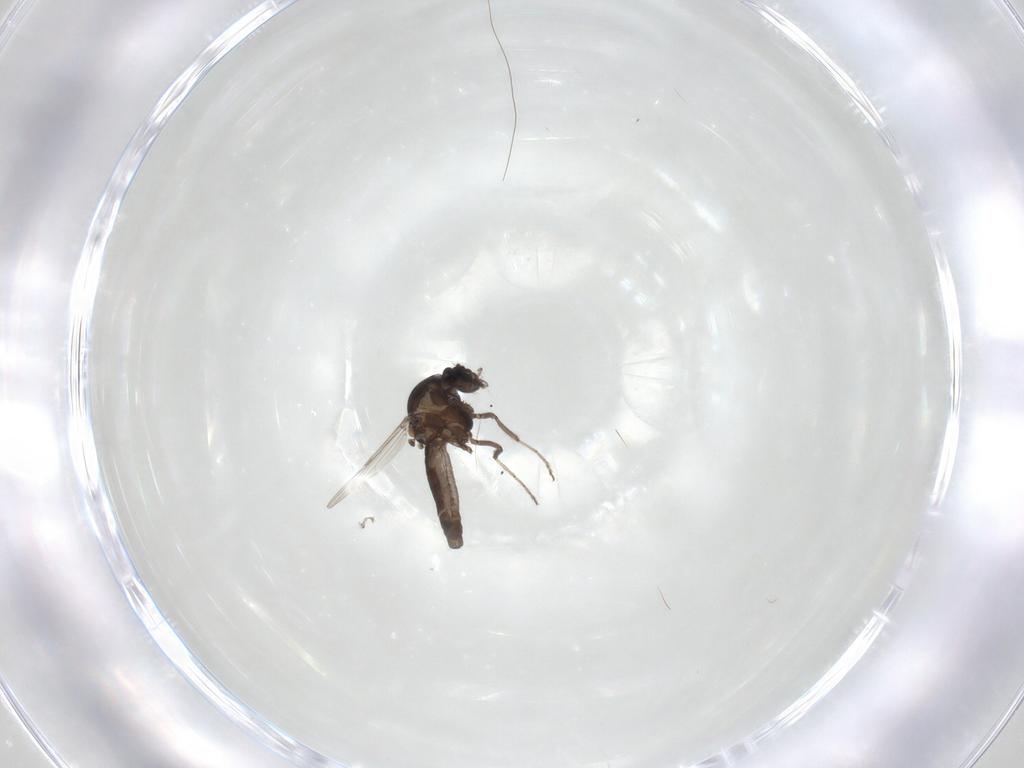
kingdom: Animalia
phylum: Arthropoda
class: Insecta
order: Diptera
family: Ceratopogonidae
